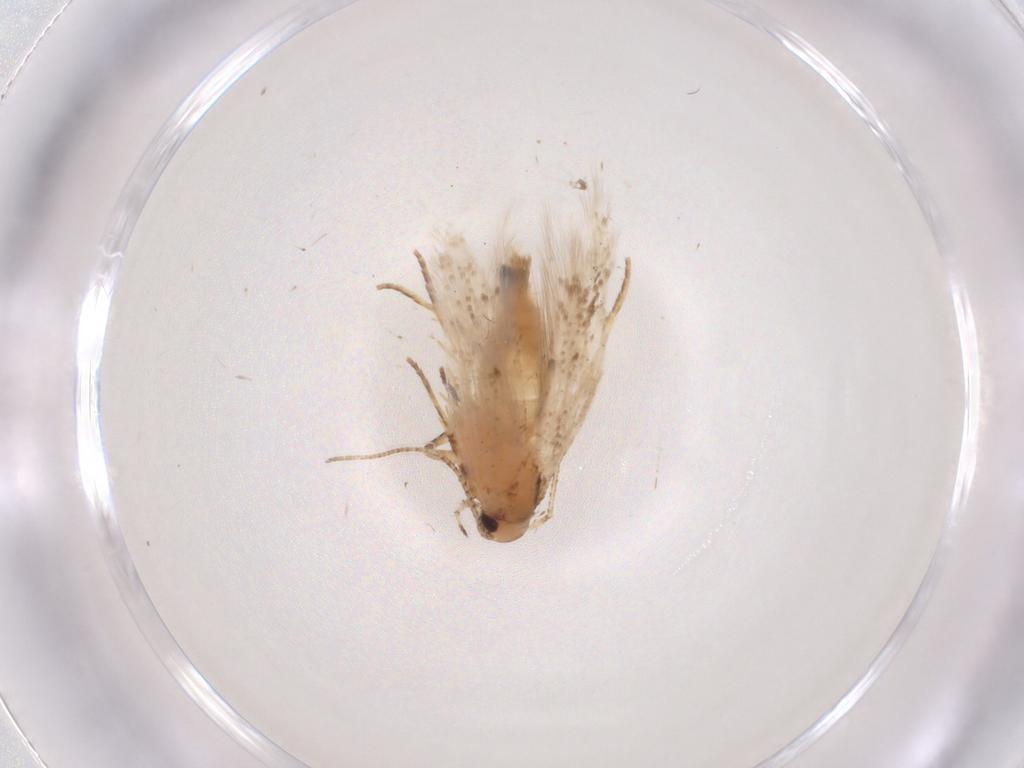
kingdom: Animalia
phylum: Arthropoda
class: Insecta
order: Lepidoptera
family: Gelechiidae
